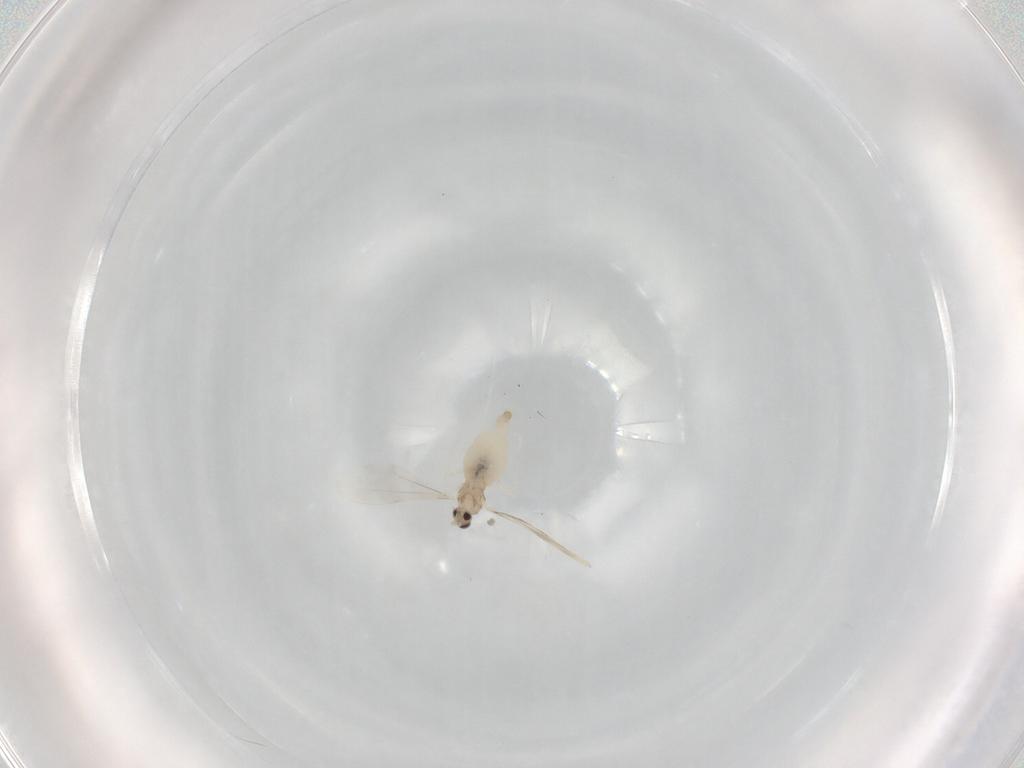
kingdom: Animalia
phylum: Arthropoda
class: Insecta
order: Diptera
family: Cecidomyiidae
